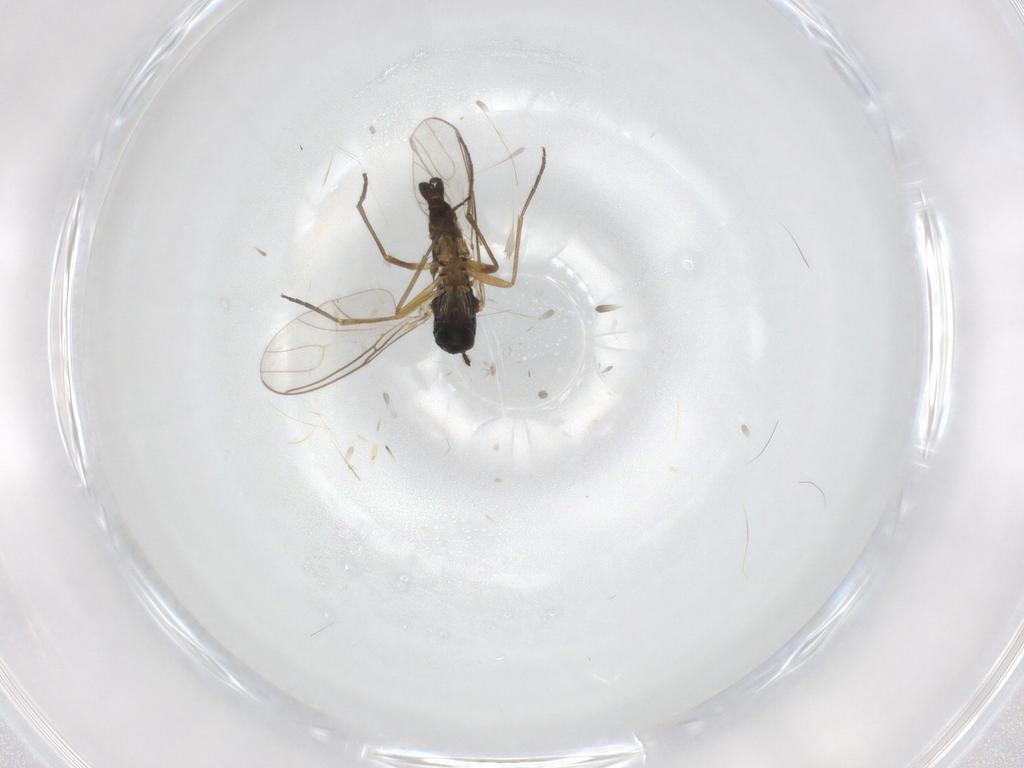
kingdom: Animalia
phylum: Arthropoda
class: Insecta
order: Diptera
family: Sciaridae
